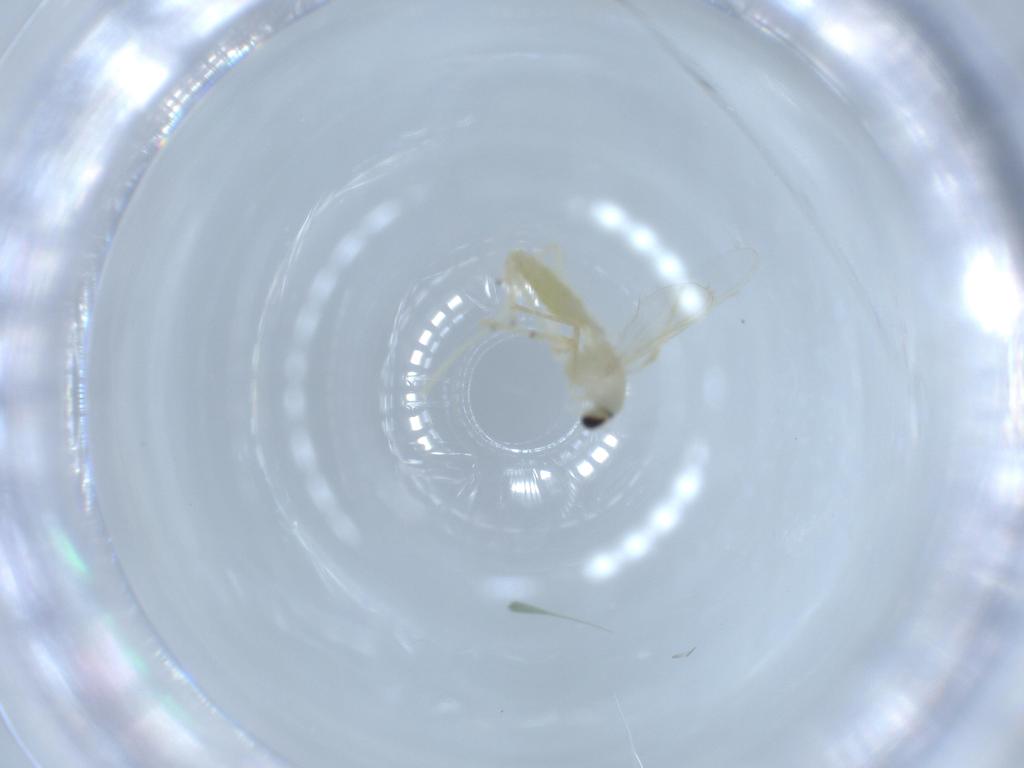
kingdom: Animalia
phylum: Arthropoda
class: Insecta
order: Diptera
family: Chironomidae
